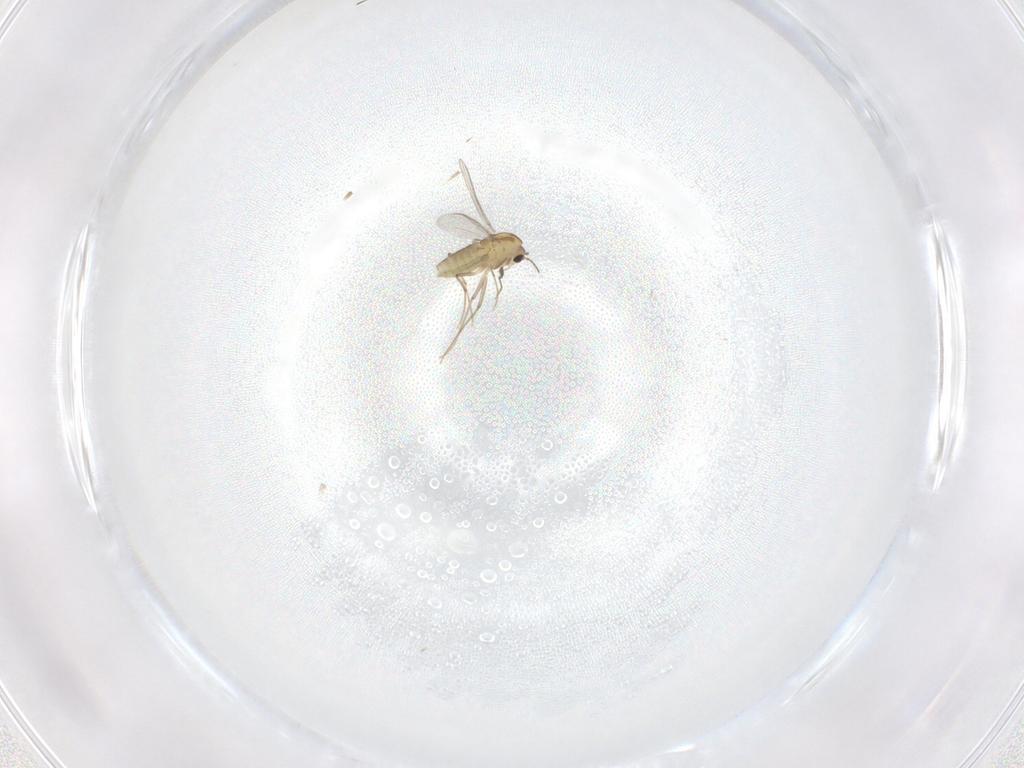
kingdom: Animalia
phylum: Arthropoda
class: Insecta
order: Diptera
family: Chironomidae
